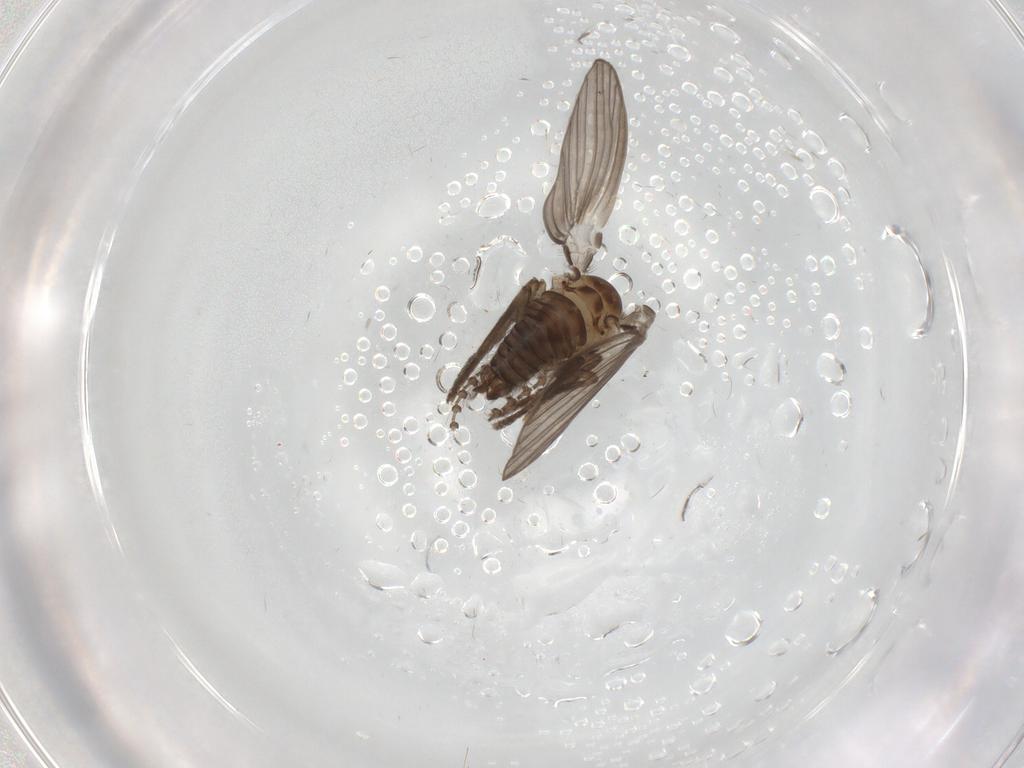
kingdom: Animalia
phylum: Arthropoda
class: Insecta
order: Diptera
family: Psychodidae
